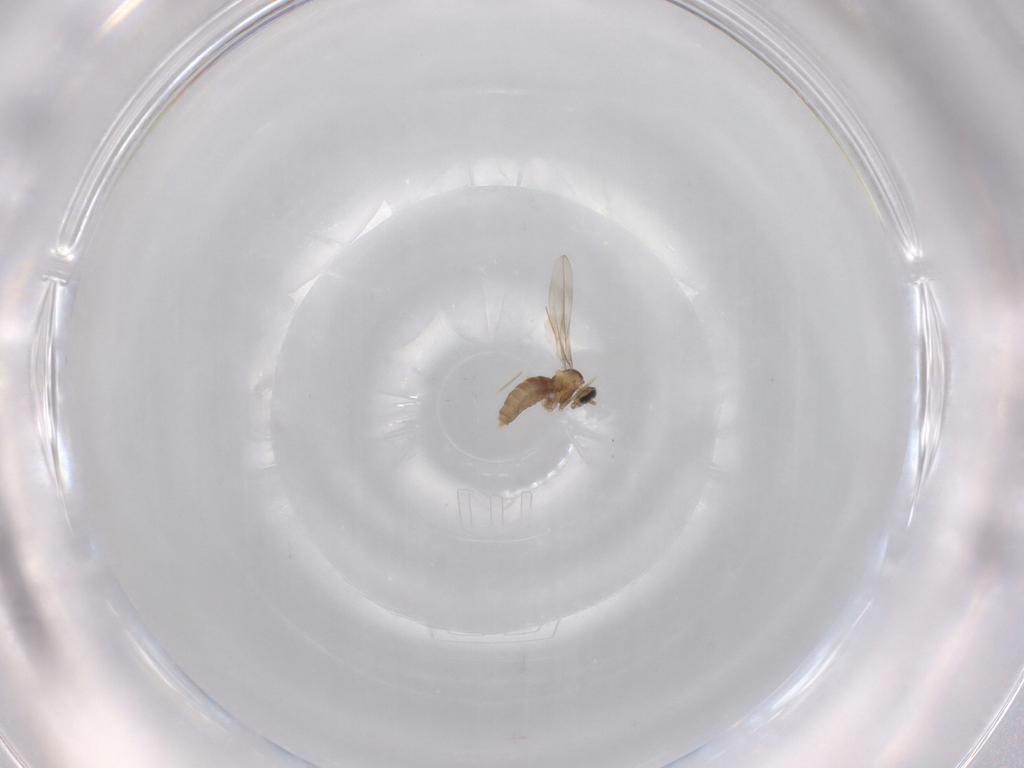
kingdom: Animalia
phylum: Arthropoda
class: Insecta
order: Diptera
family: Cecidomyiidae
